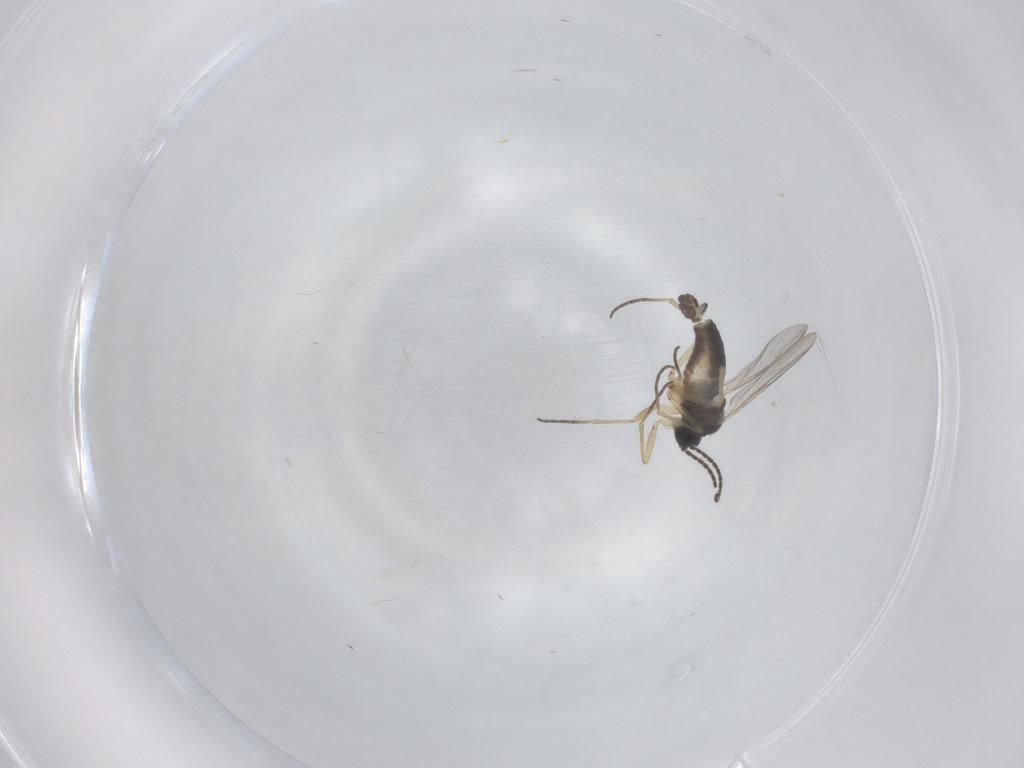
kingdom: Animalia
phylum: Arthropoda
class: Insecta
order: Diptera
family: Sciaridae
